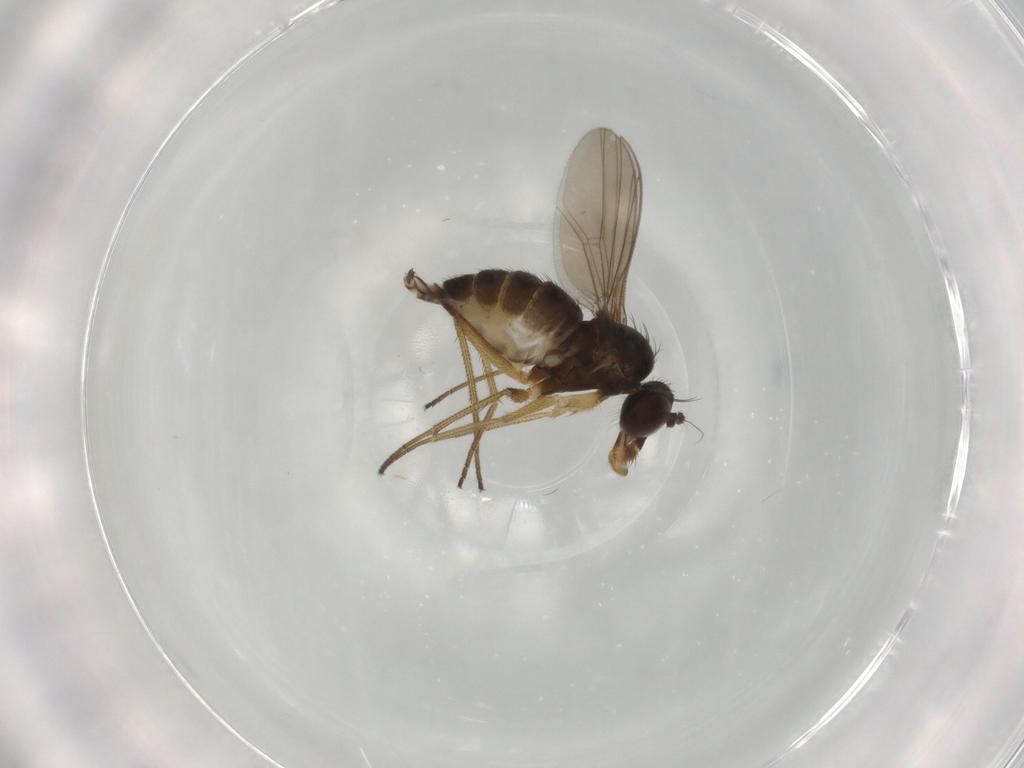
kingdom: Animalia
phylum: Arthropoda
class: Insecta
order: Diptera
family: Dolichopodidae
